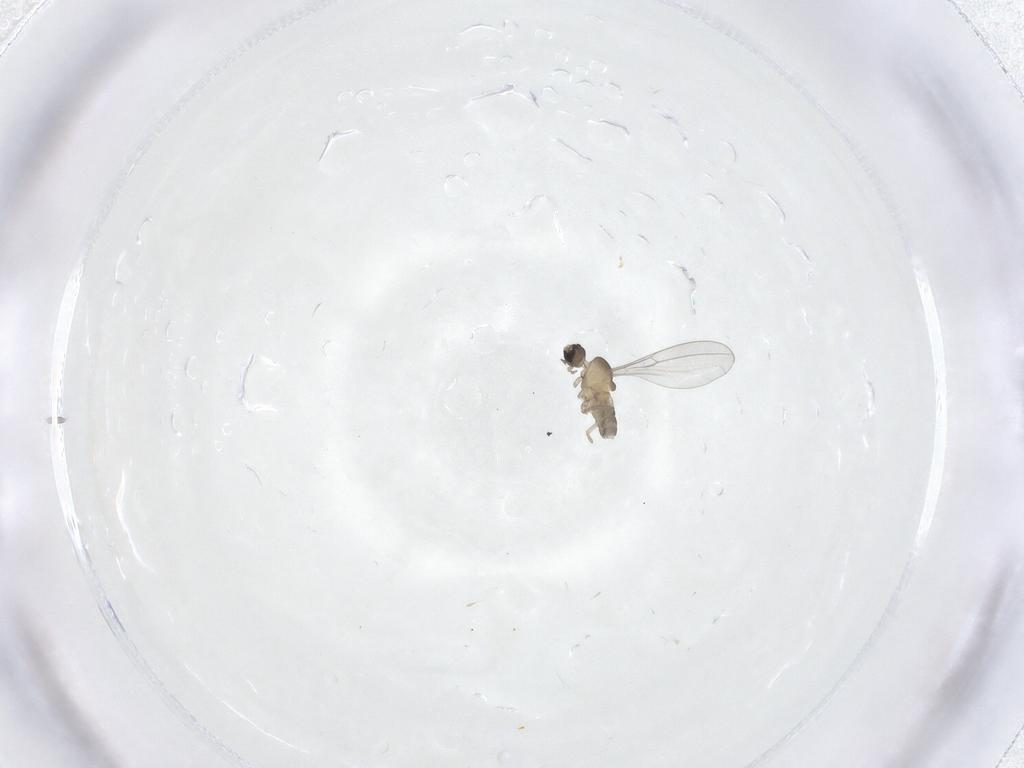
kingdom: Animalia
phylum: Arthropoda
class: Insecta
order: Diptera
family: Cecidomyiidae
